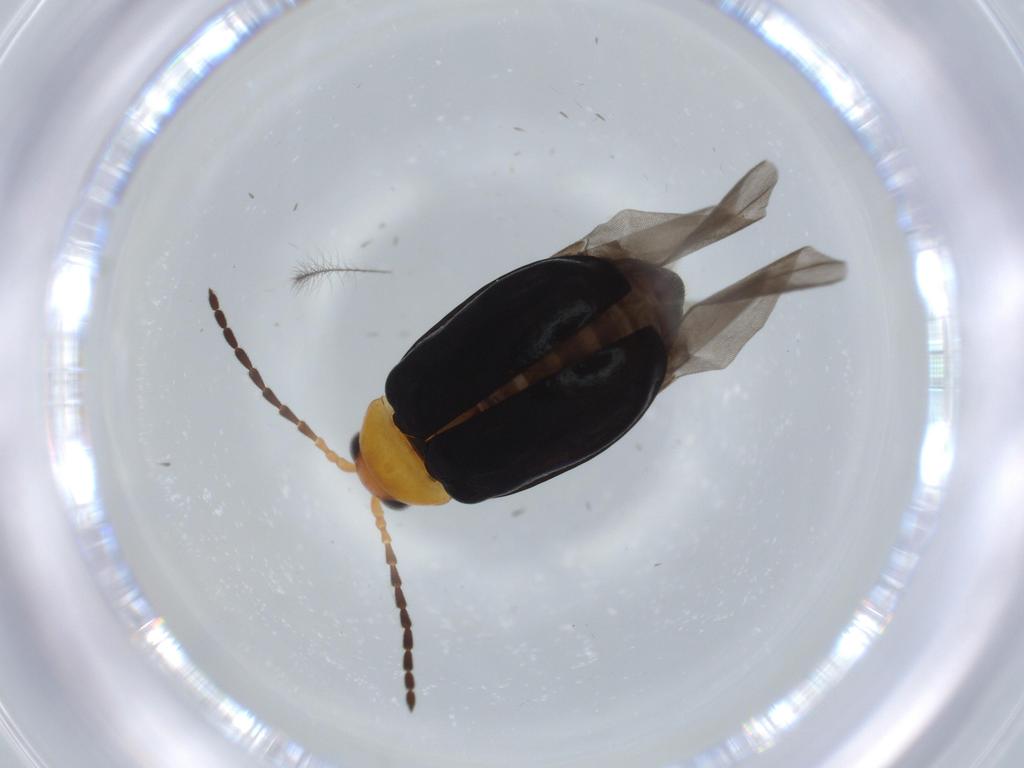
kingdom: Animalia
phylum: Arthropoda
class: Insecta
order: Coleoptera
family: Chrysomelidae
